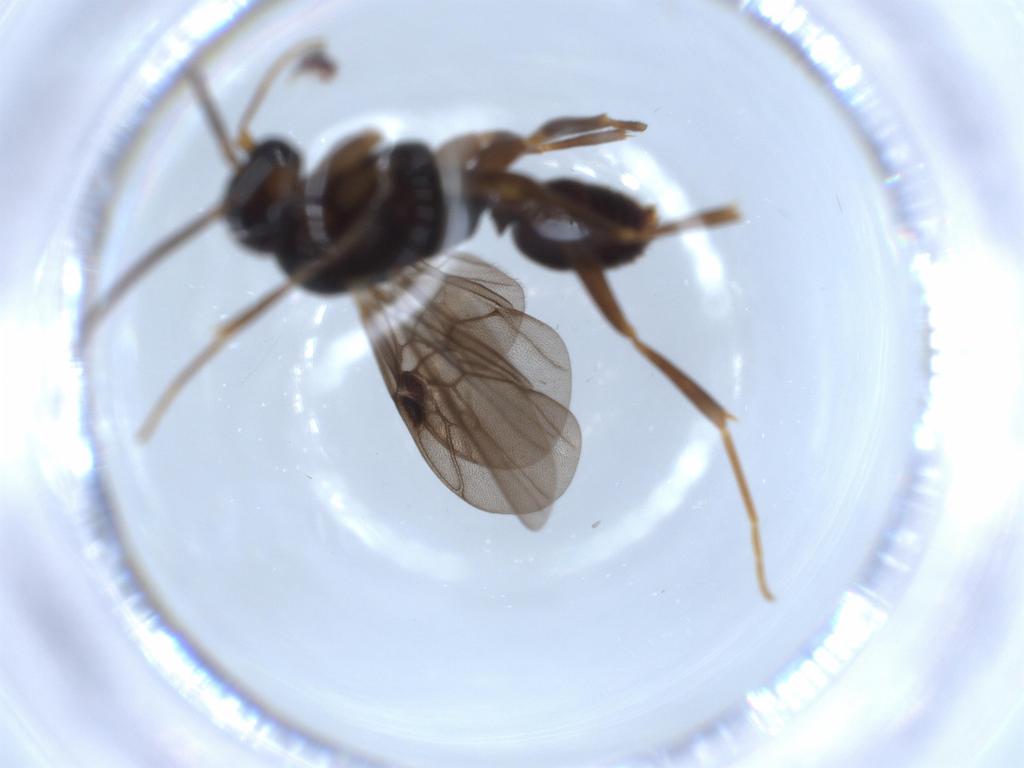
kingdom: Animalia
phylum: Arthropoda
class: Insecta
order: Hymenoptera
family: Formicidae
